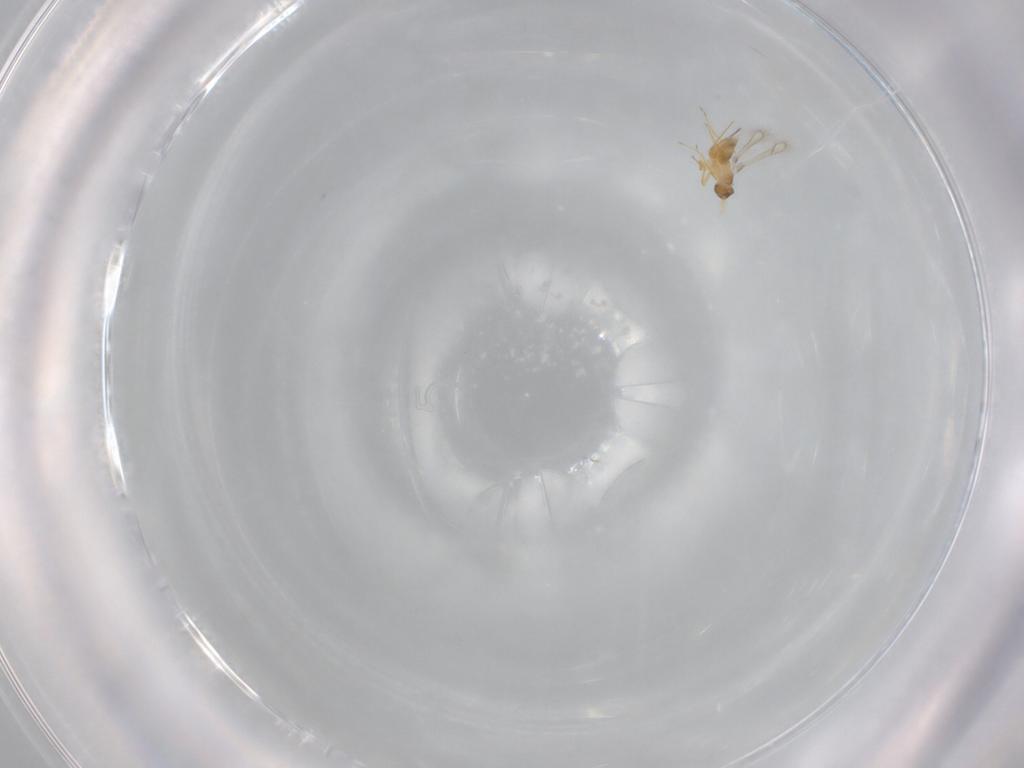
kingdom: Animalia
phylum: Arthropoda
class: Insecta
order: Hymenoptera
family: Mymaridae
